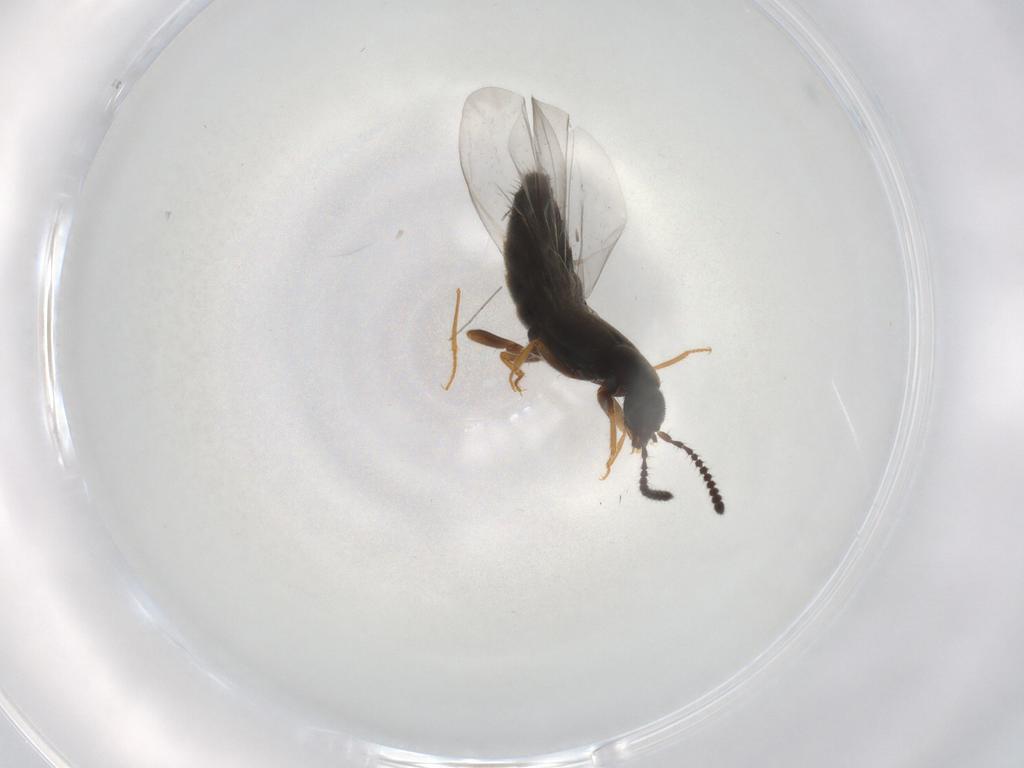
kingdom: Animalia
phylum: Arthropoda
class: Insecta
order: Coleoptera
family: Staphylinidae
